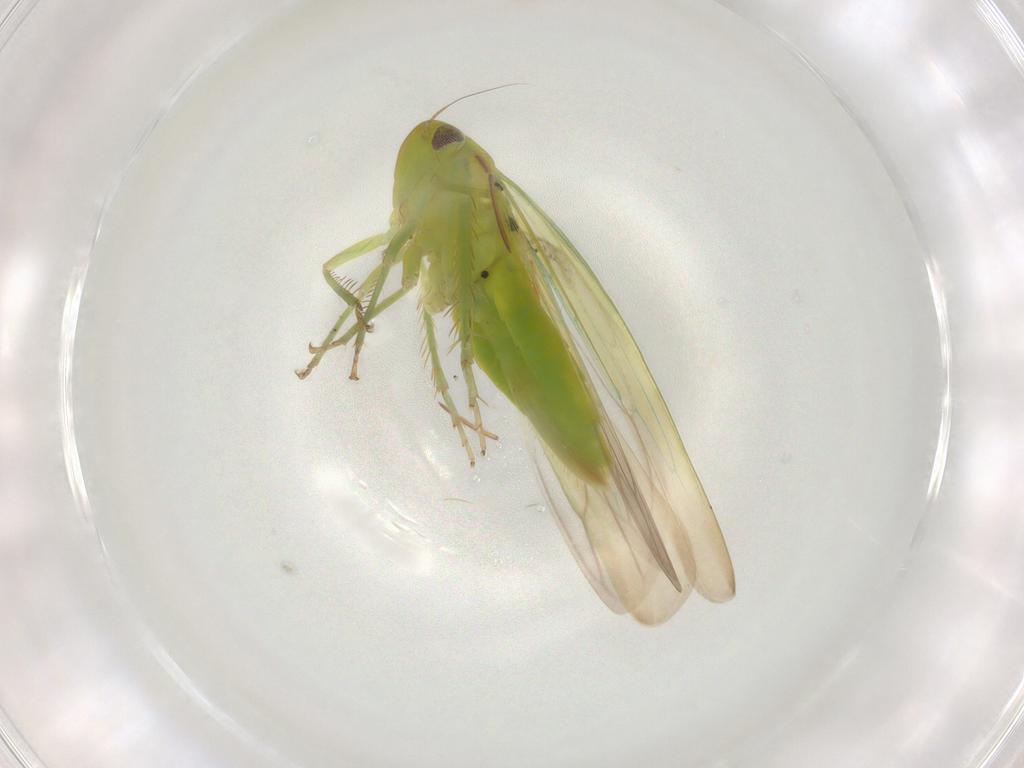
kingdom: Animalia
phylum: Arthropoda
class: Insecta
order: Hemiptera
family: Cicadellidae
